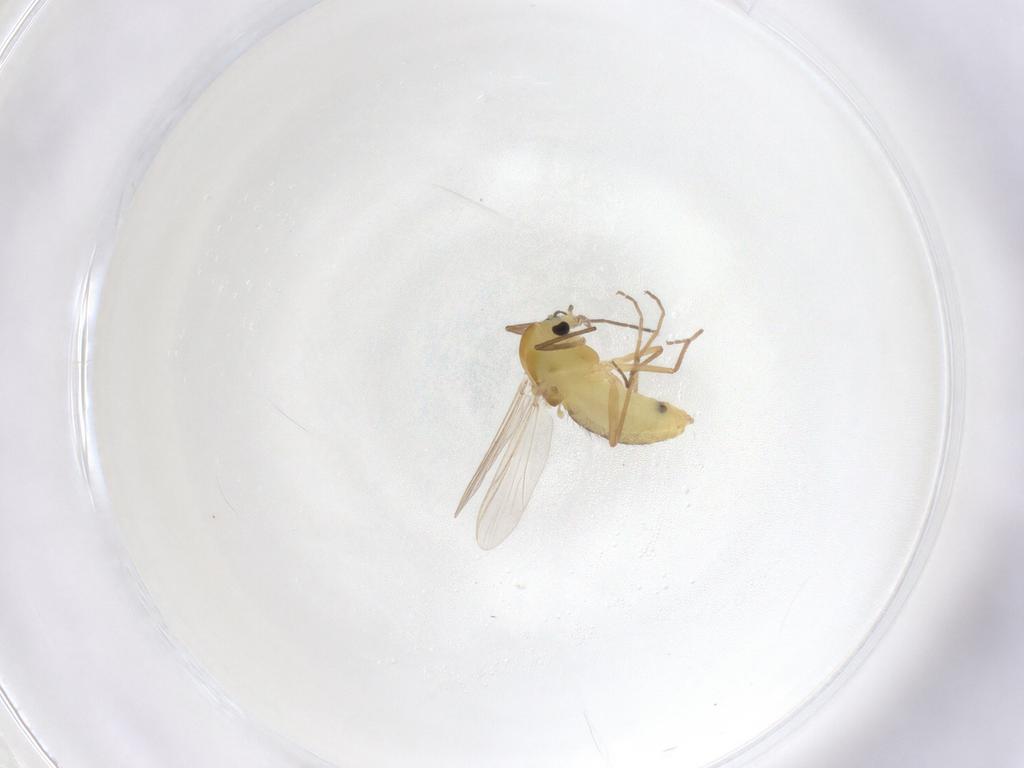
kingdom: Animalia
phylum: Arthropoda
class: Insecta
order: Diptera
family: Chironomidae
